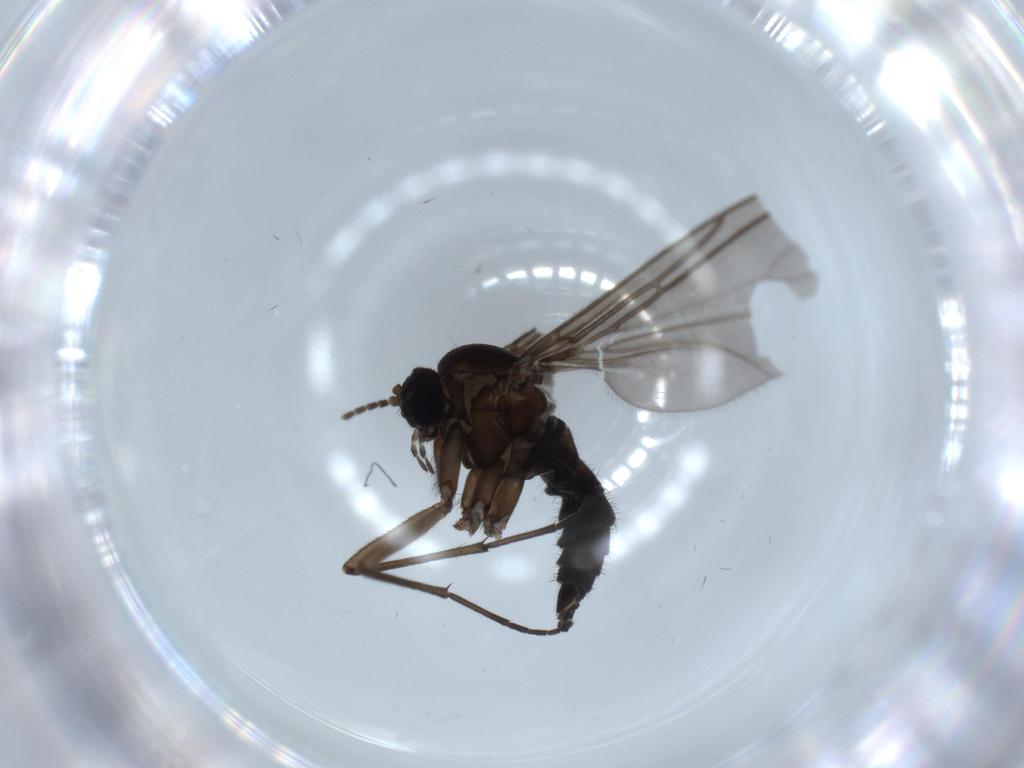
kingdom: Animalia
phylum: Arthropoda
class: Insecta
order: Diptera
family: Sciaridae
